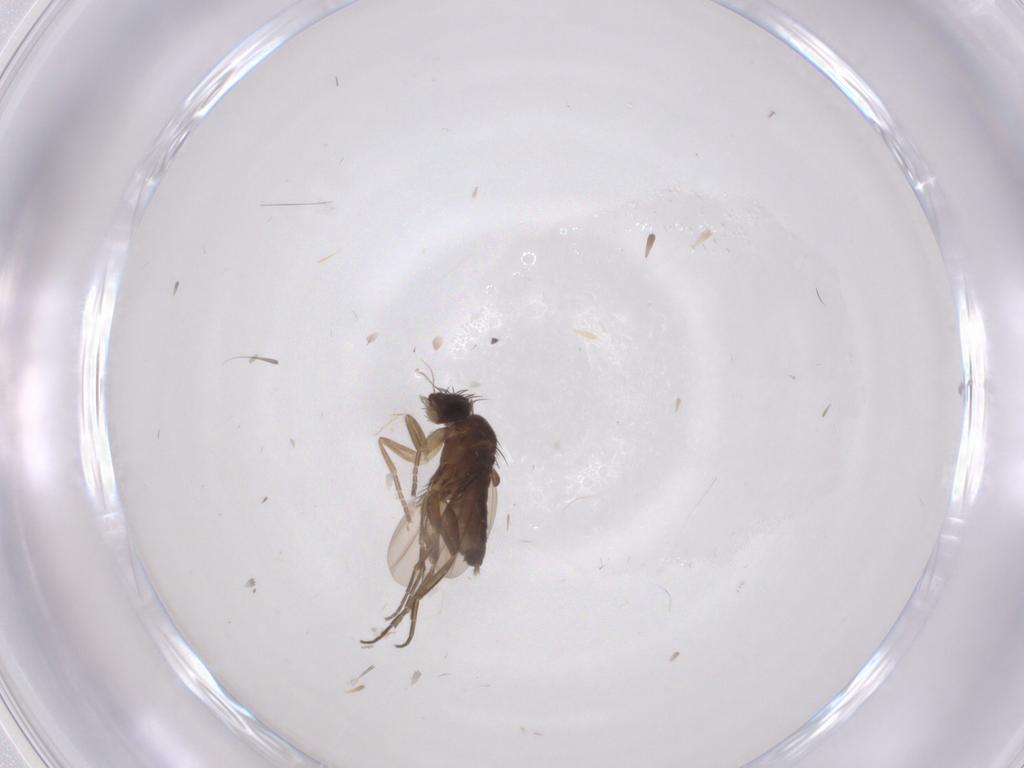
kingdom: Animalia
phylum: Arthropoda
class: Insecta
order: Diptera
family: Phoridae
